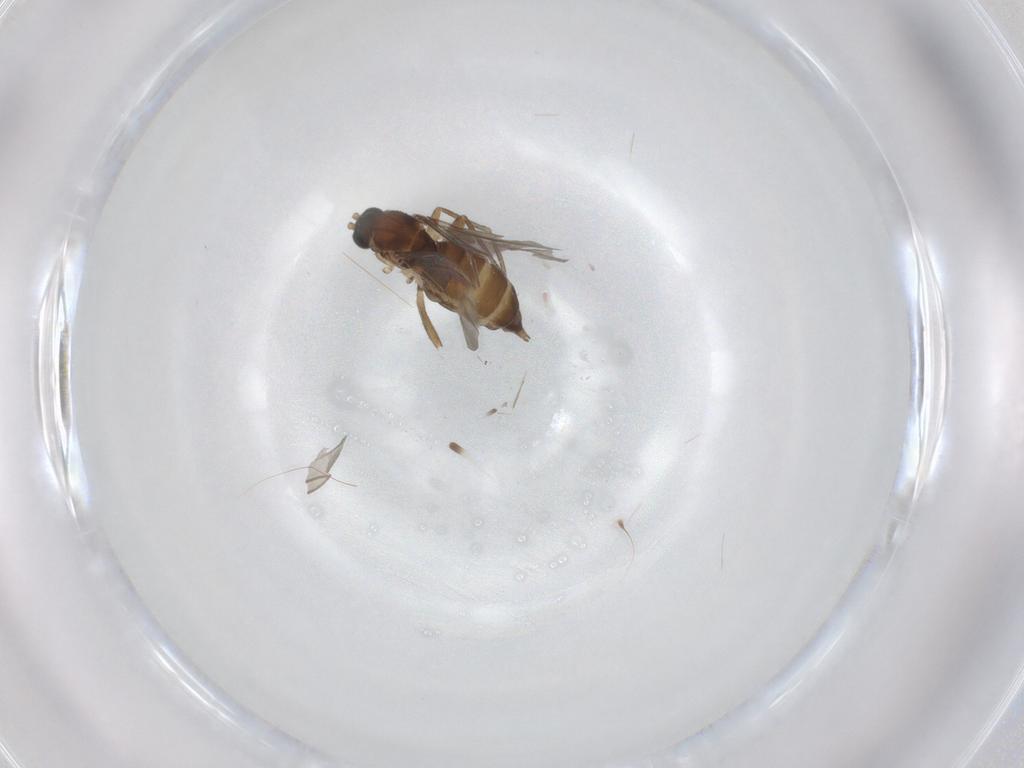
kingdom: Animalia
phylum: Arthropoda
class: Insecta
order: Diptera
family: Sciaridae
